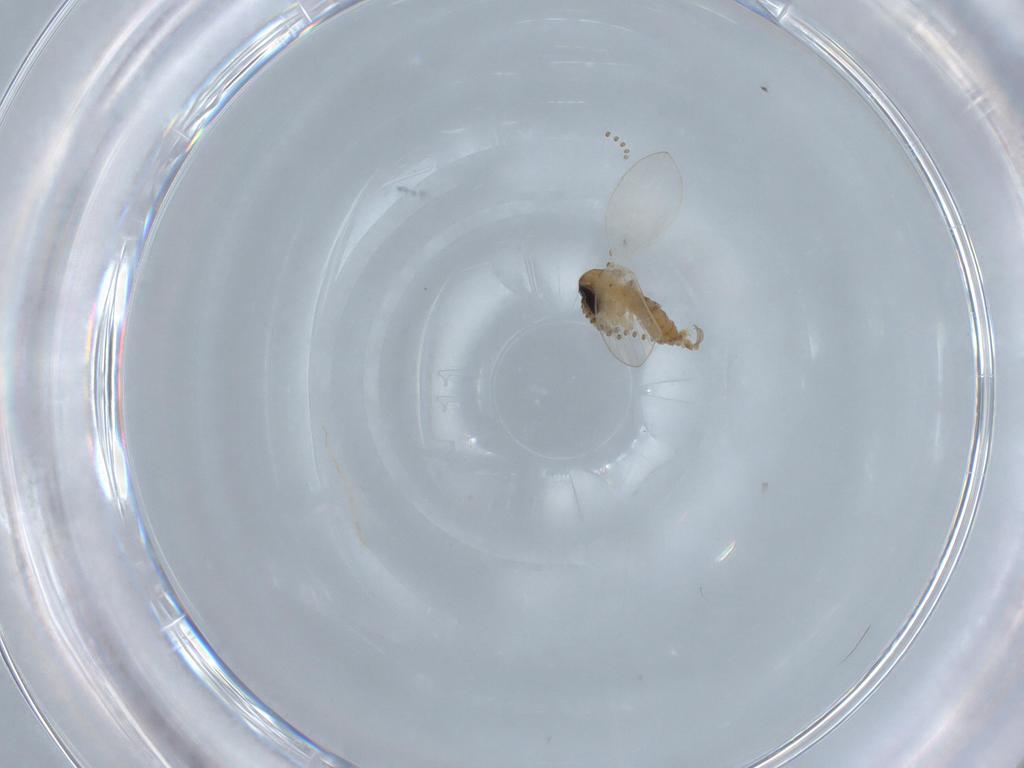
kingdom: Animalia
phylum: Arthropoda
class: Insecta
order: Diptera
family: Psychodidae
